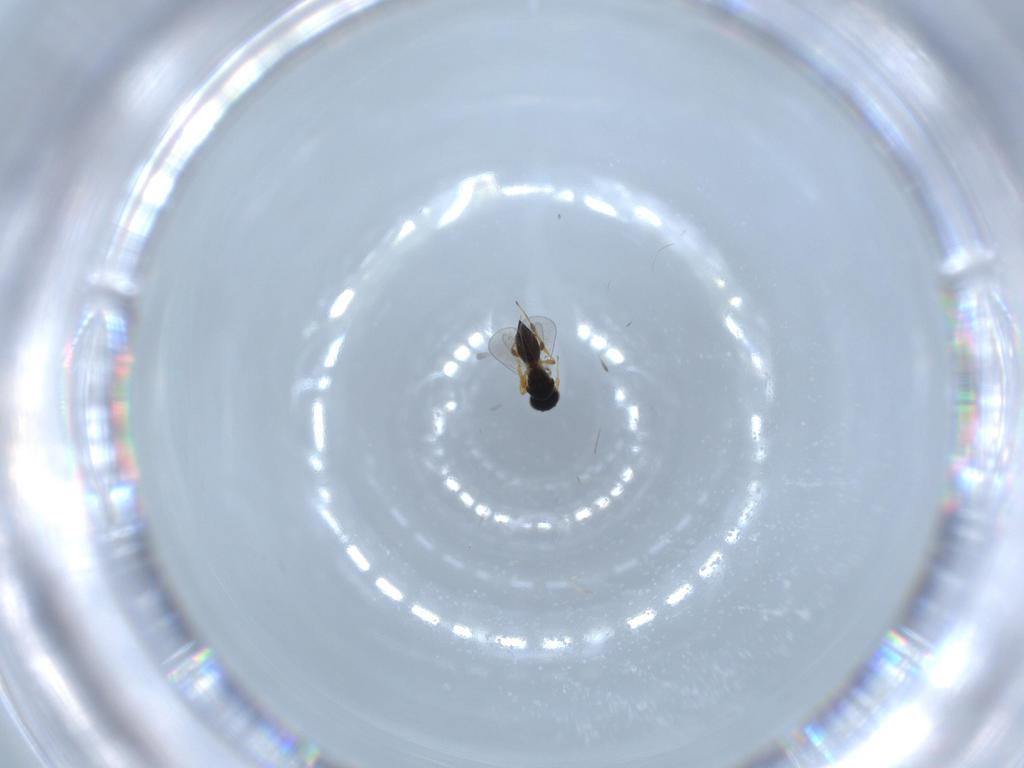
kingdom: Animalia
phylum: Arthropoda
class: Insecta
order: Hymenoptera
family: Platygastridae
